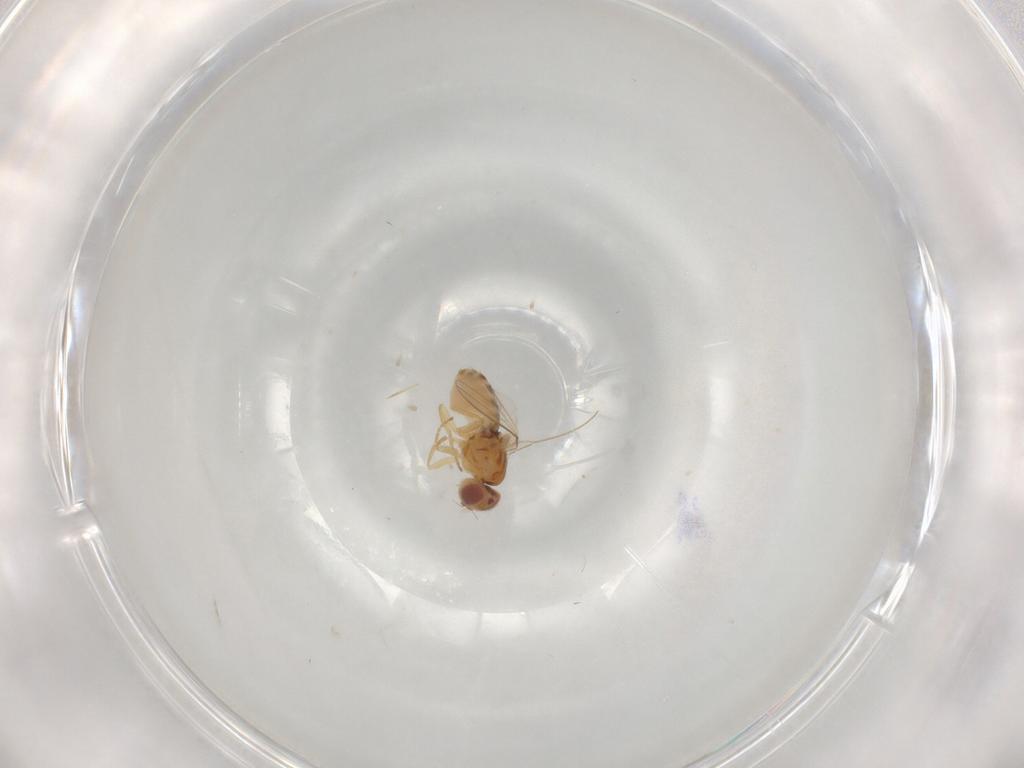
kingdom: Animalia
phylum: Arthropoda
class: Insecta
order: Diptera
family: Chyromyidae
